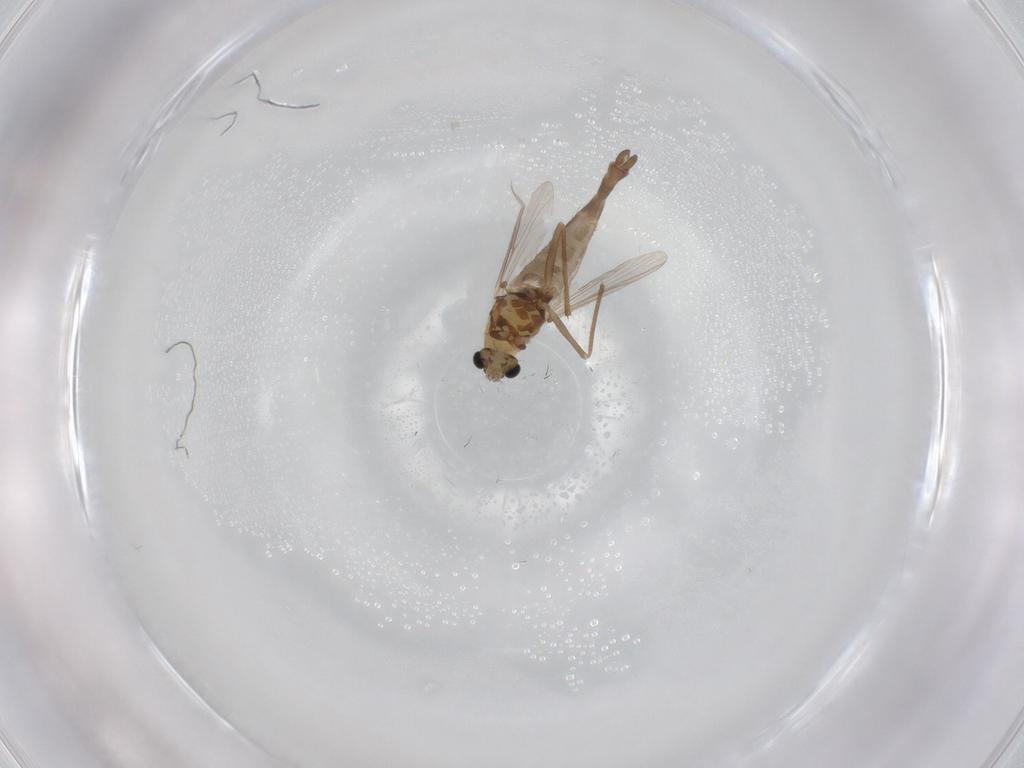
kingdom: Animalia
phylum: Arthropoda
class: Insecta
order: Diptera
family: Chironomidae
